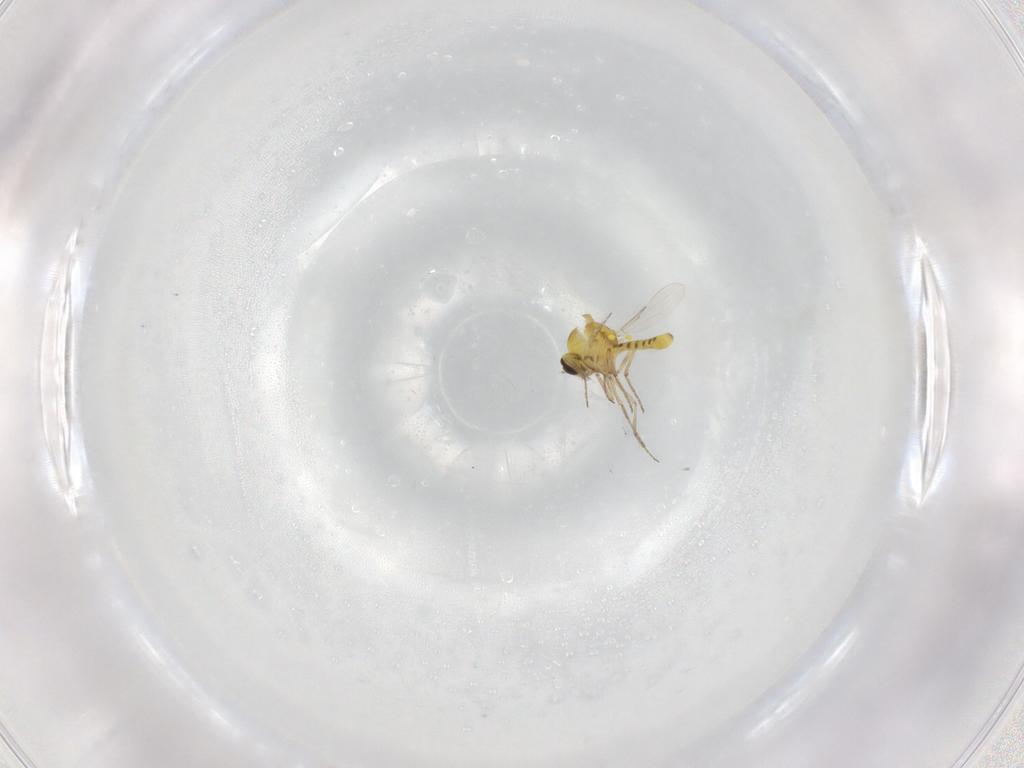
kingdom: Animalia
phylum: Arthropoda
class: Insecta
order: Diptera
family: Ceratopogonidae
